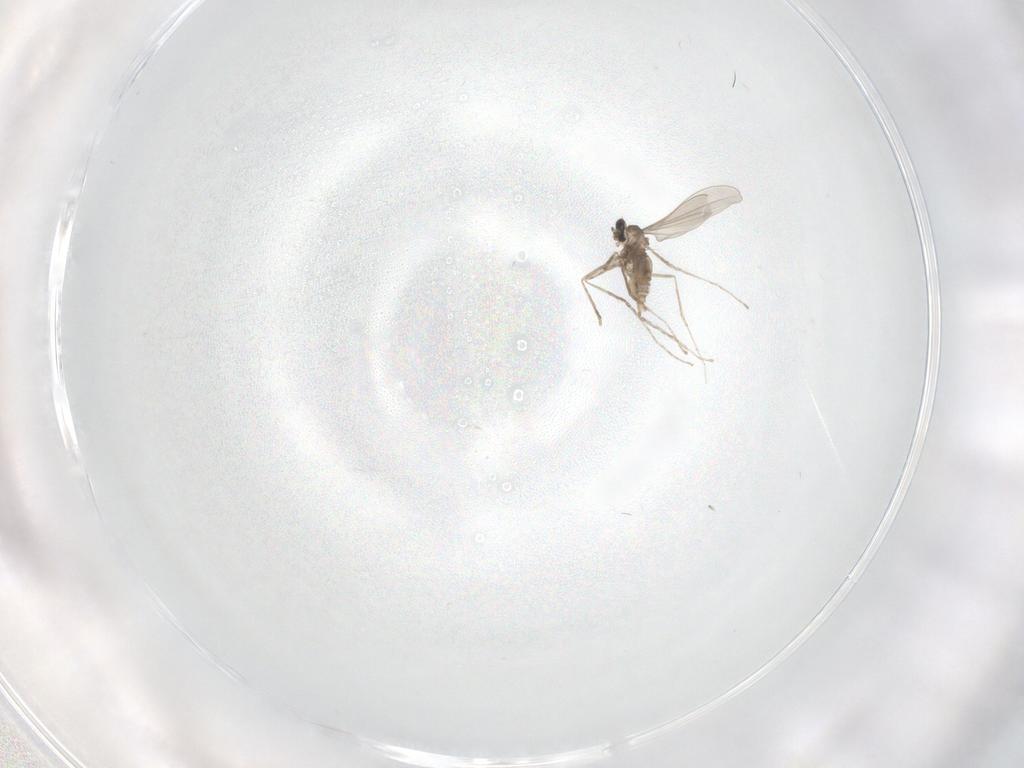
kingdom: Animalia
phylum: Arthropoda
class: Insecta
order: Diptera
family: Cecidomyiidae
